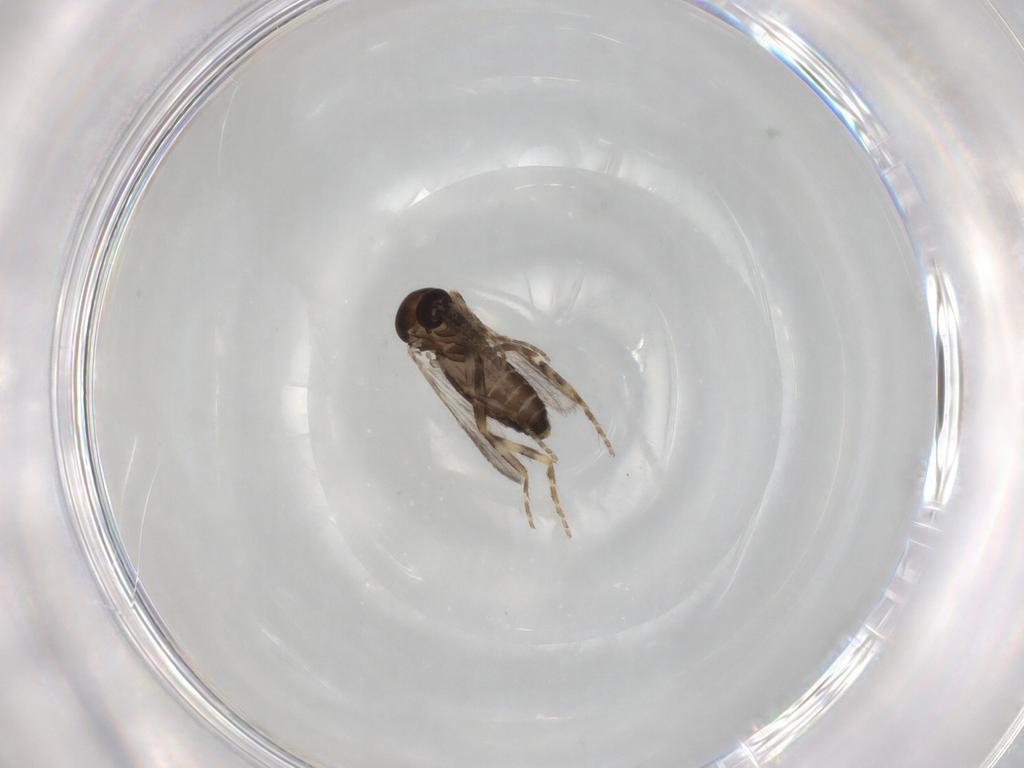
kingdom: Animalia
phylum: Arthropoda
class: Insecta
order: Diptera
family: Ceratopogonidae
